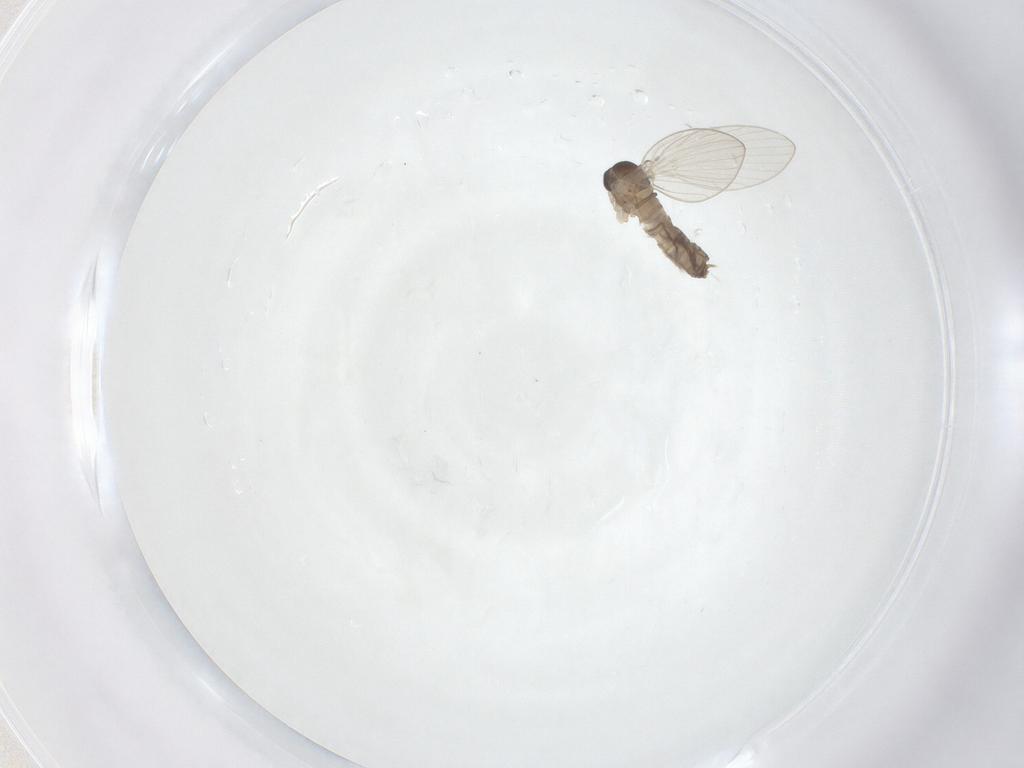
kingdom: Animalia
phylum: Arthropoda
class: Insecta
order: Diptera
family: Psychodidae
